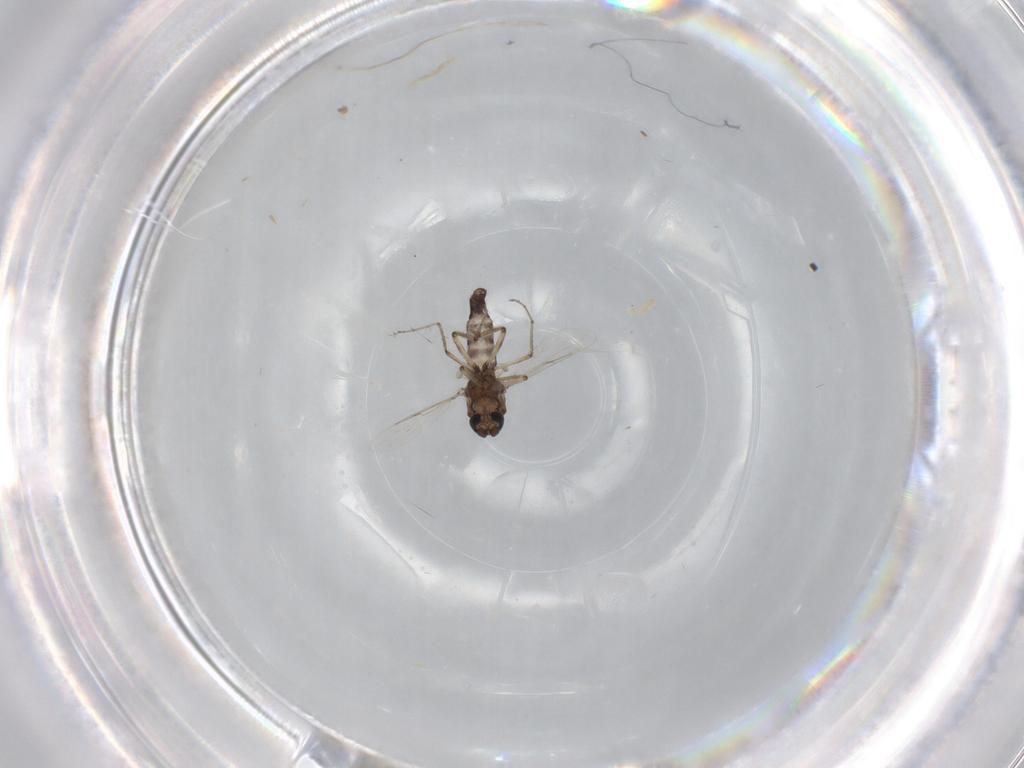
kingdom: Animalia
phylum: Arthropoda
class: Insecta
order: Diptera
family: Ceratopogonidae
